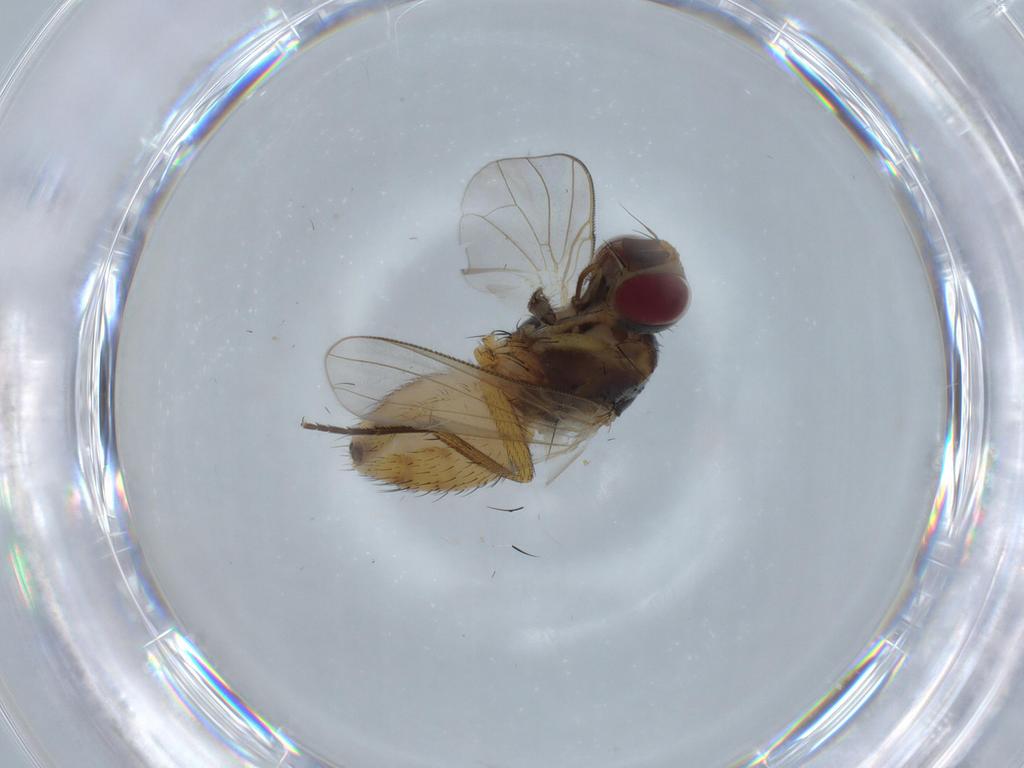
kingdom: Animalia
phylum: Arthropoda
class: Insecta
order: Diptera
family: Muscidae
